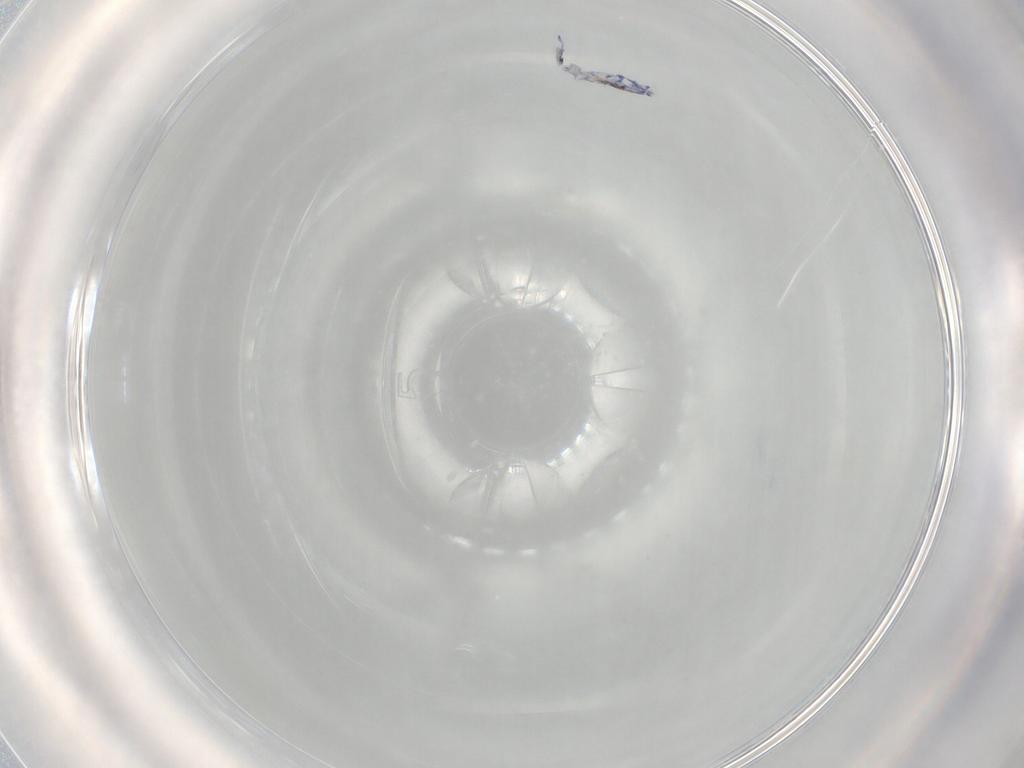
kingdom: Animalia
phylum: Arthropoda
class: Collembola
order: Entomobryomorpha
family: Entomobryidae
